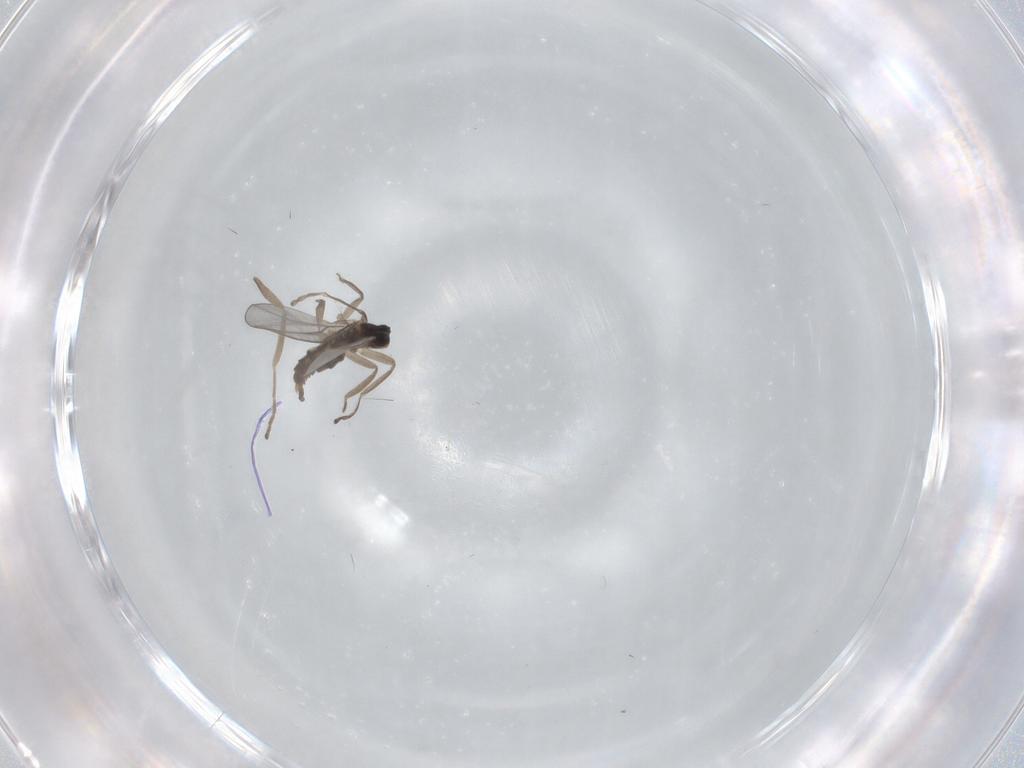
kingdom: Animalia
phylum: Arthropoda
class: Insecta
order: Diptera
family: Cecidomyiidae
